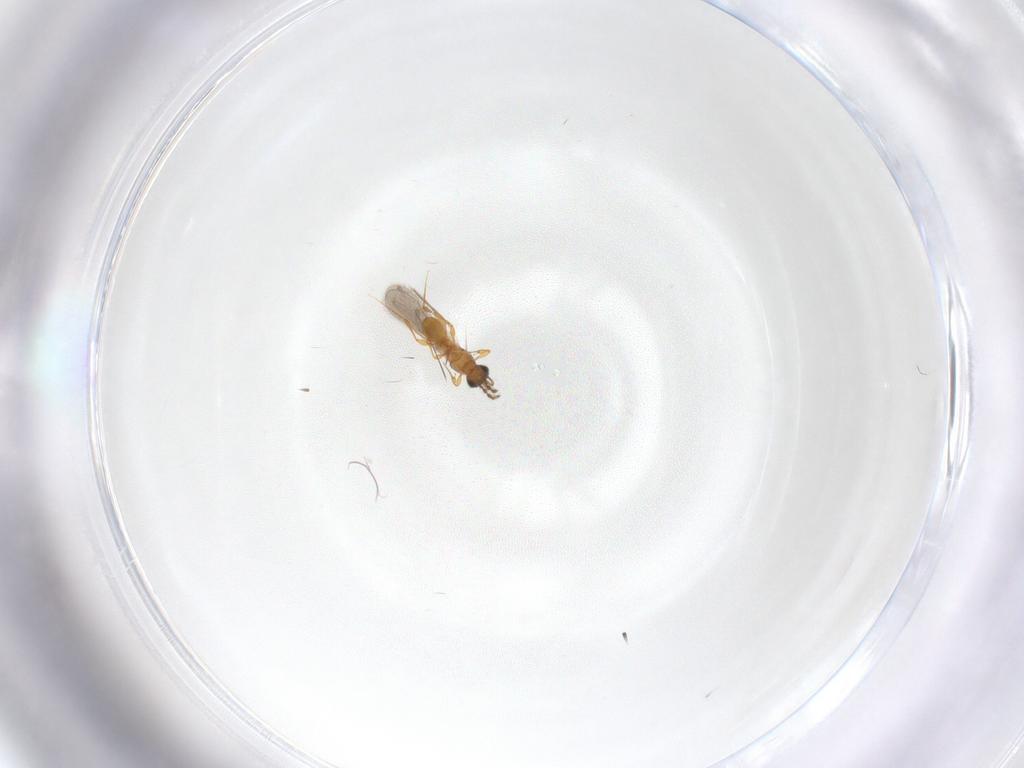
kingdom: Animalia
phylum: Arthropoda
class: Insecta
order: Hymenoptera
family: Platygastridae
